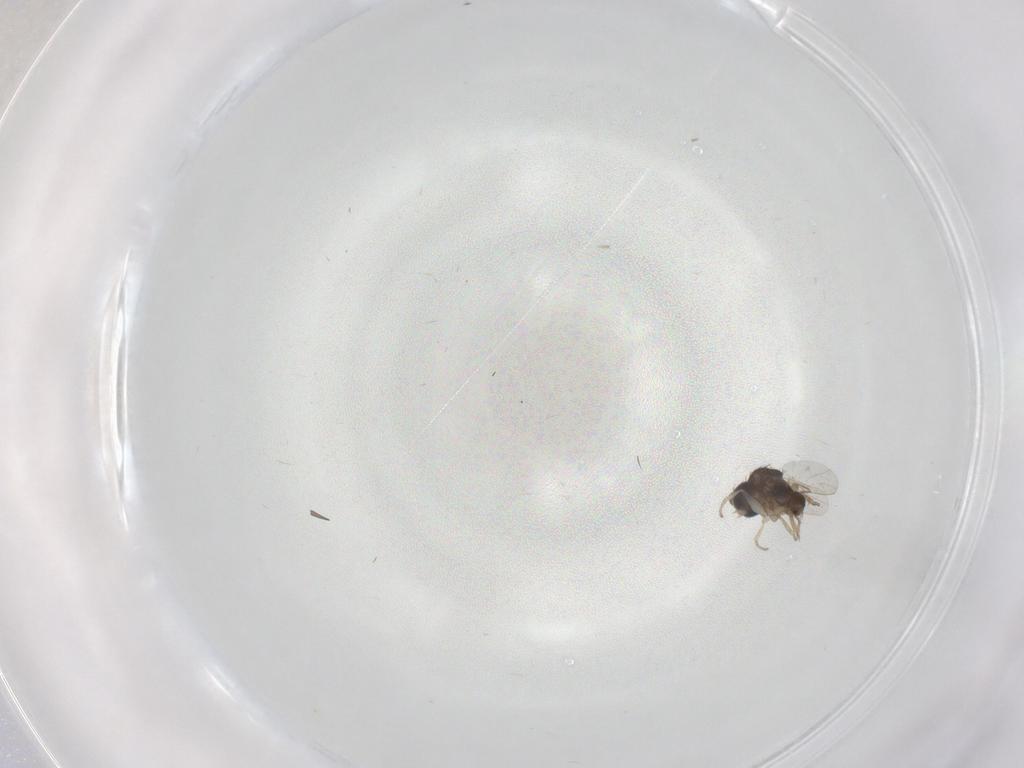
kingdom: Animalia
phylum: Arthropoda
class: Insecta
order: Diptera
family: Phoridae
